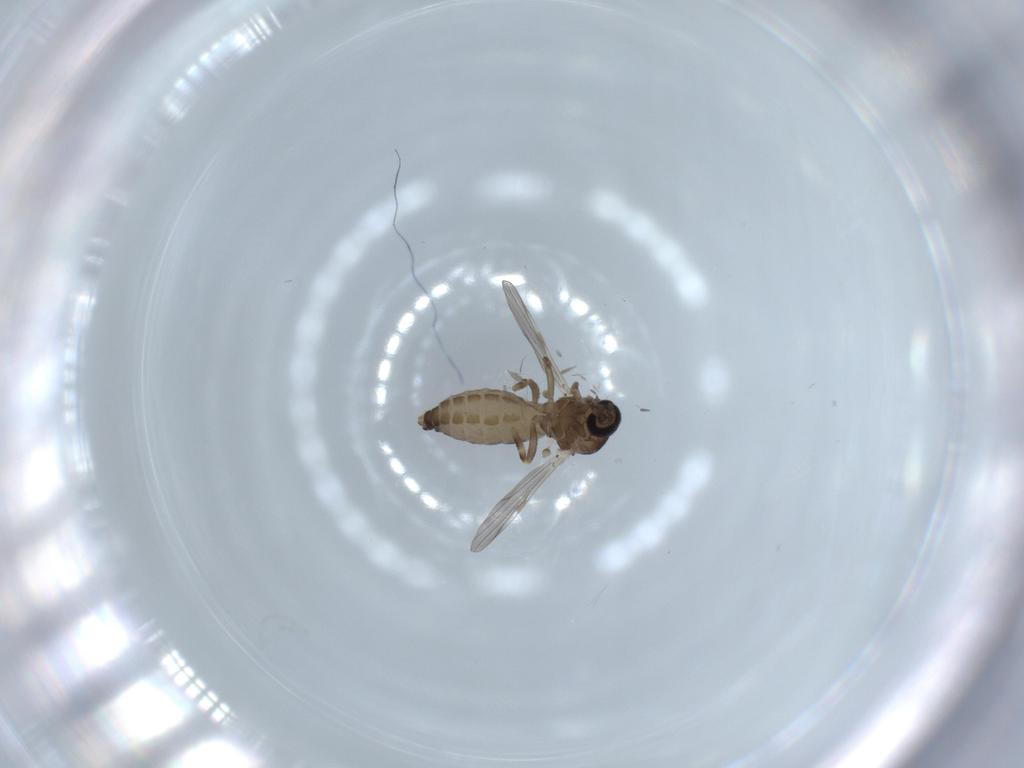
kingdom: Animalia
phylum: Arthropoda
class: Insecta
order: Diptera
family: Ceratopogonidae
